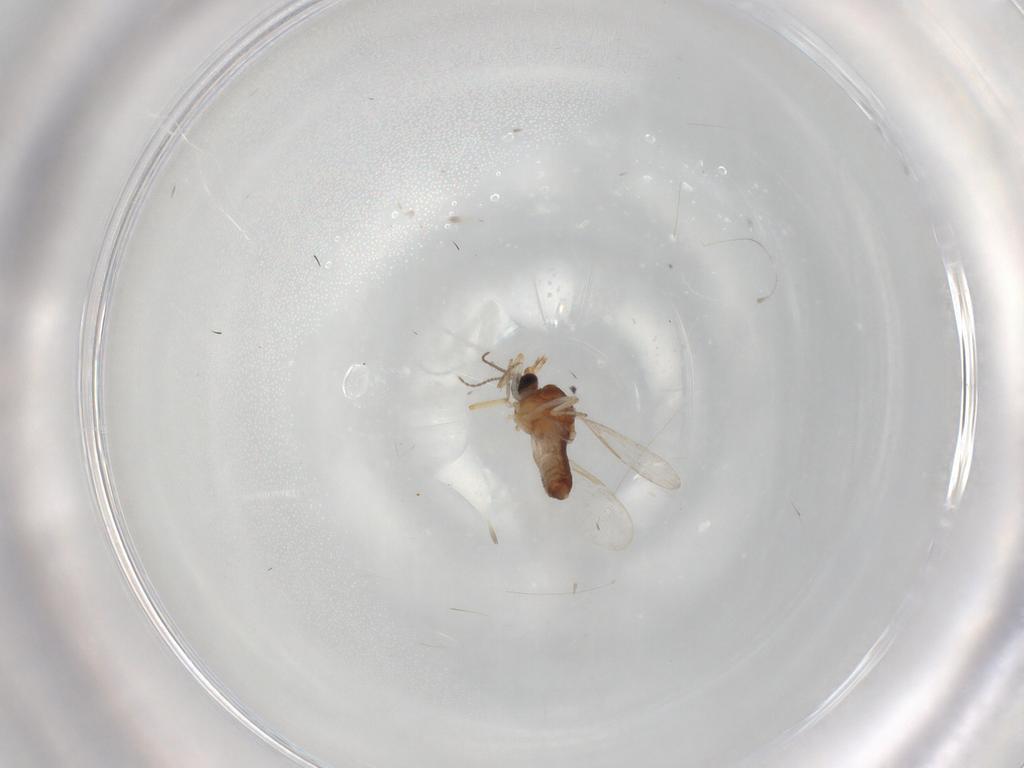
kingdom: Animalia
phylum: Arthropoda
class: Insecta
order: Diptera
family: Ceratopogonidae
